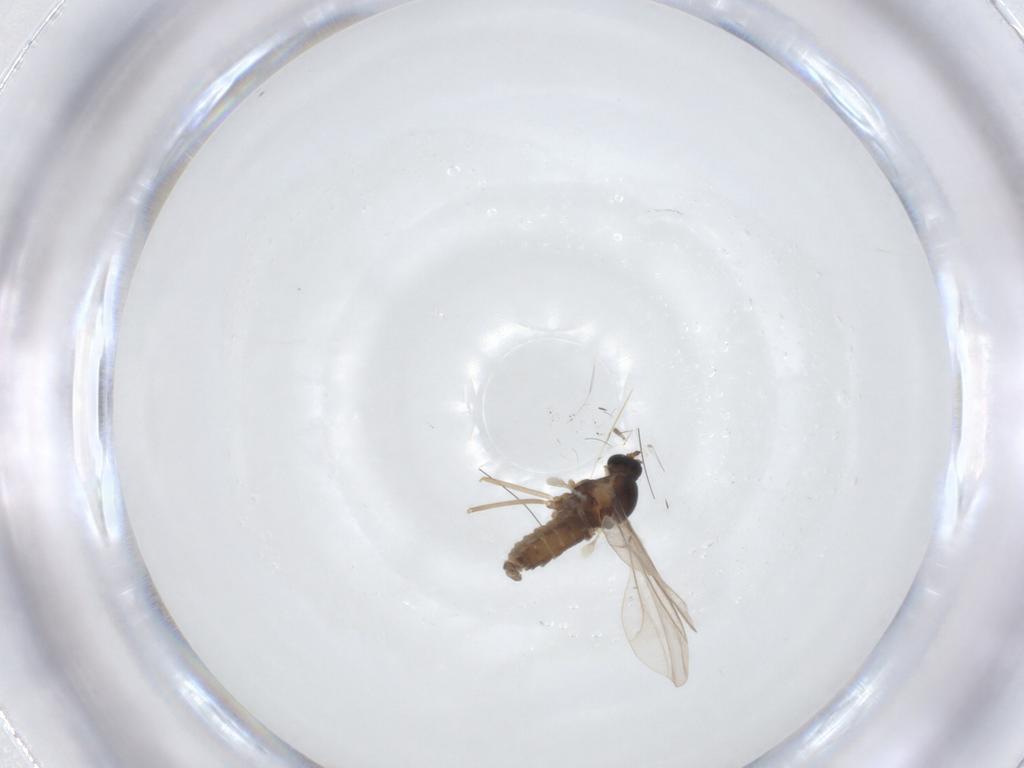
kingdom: Animalia
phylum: Arthropoda
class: Insecta
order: Diptera
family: Cecidomyiidae
